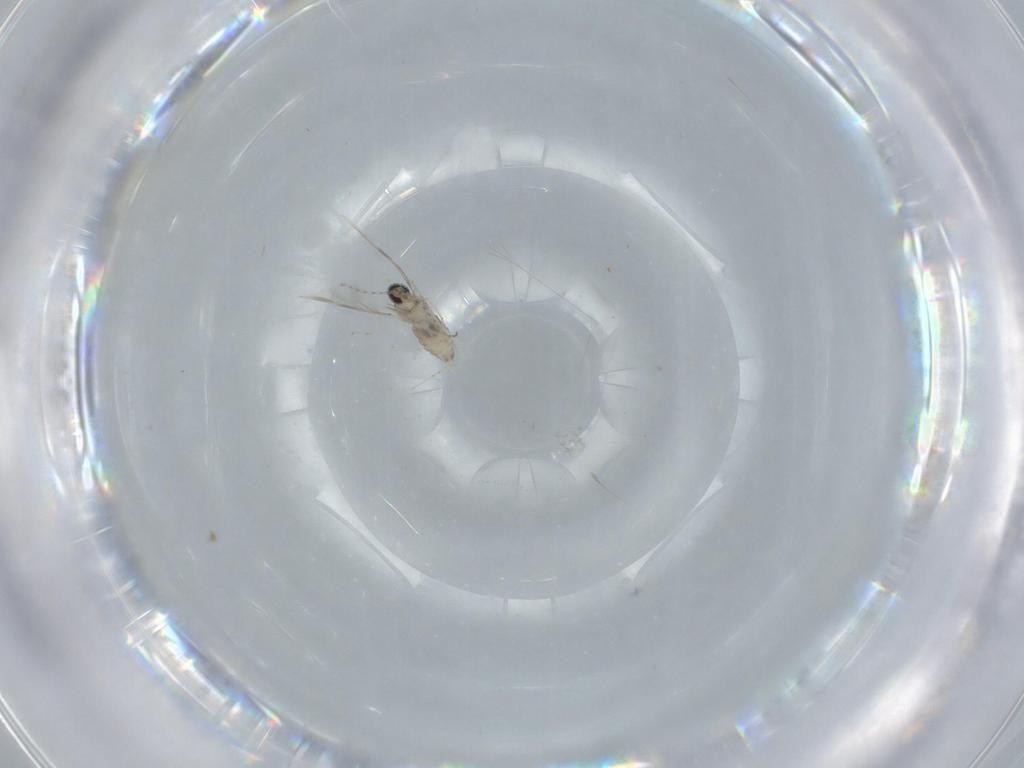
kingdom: Animalia
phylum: Arthropoda
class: Insecta
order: Diptera
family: Cecidomyiidae
